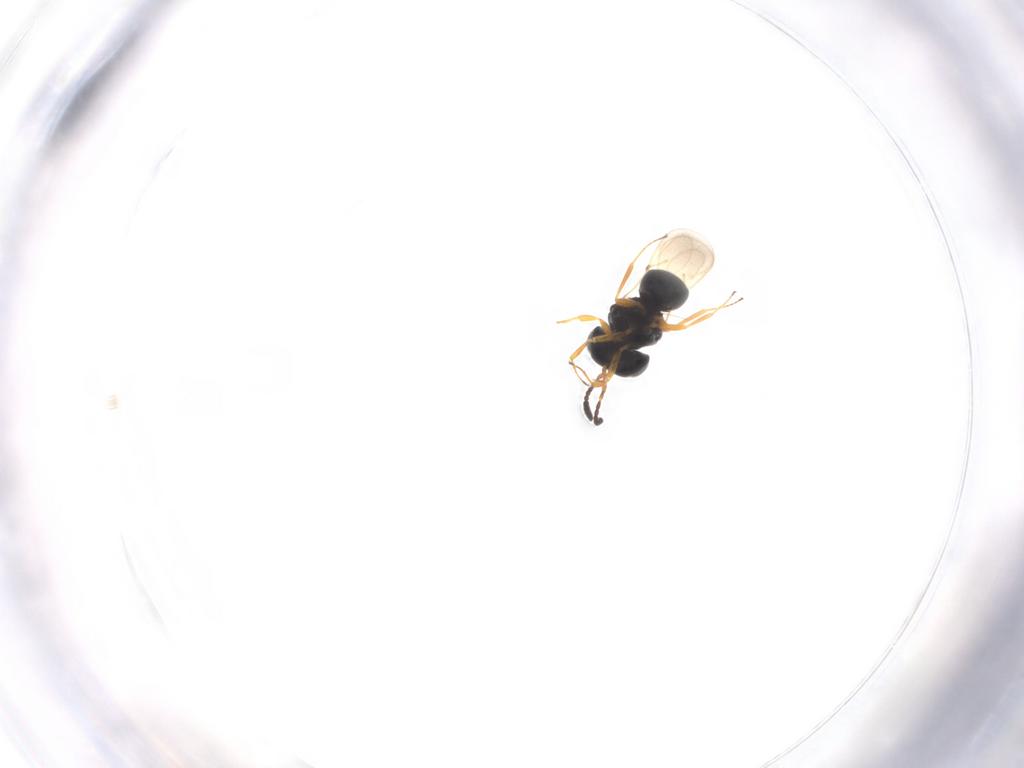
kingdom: Animalia
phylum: Arthropoda
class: Insecta
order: Hymenoptera
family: Scelionidae
